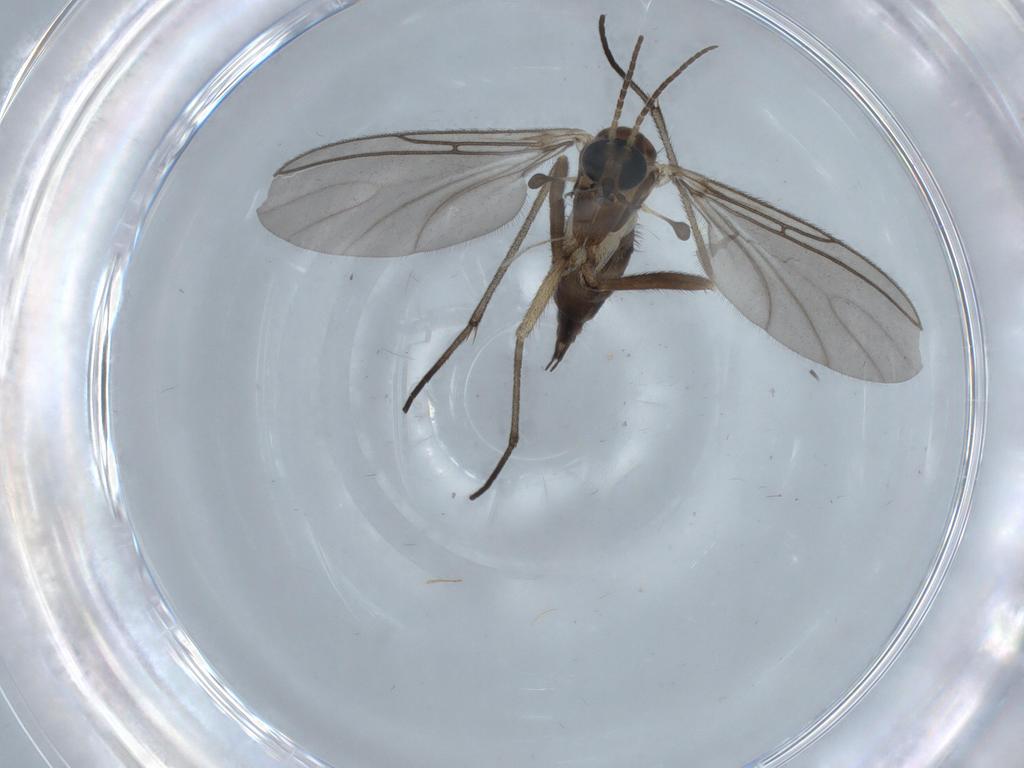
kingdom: Animalia
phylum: Arthropoda
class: Insecta
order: Diptera
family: Sciaridae
